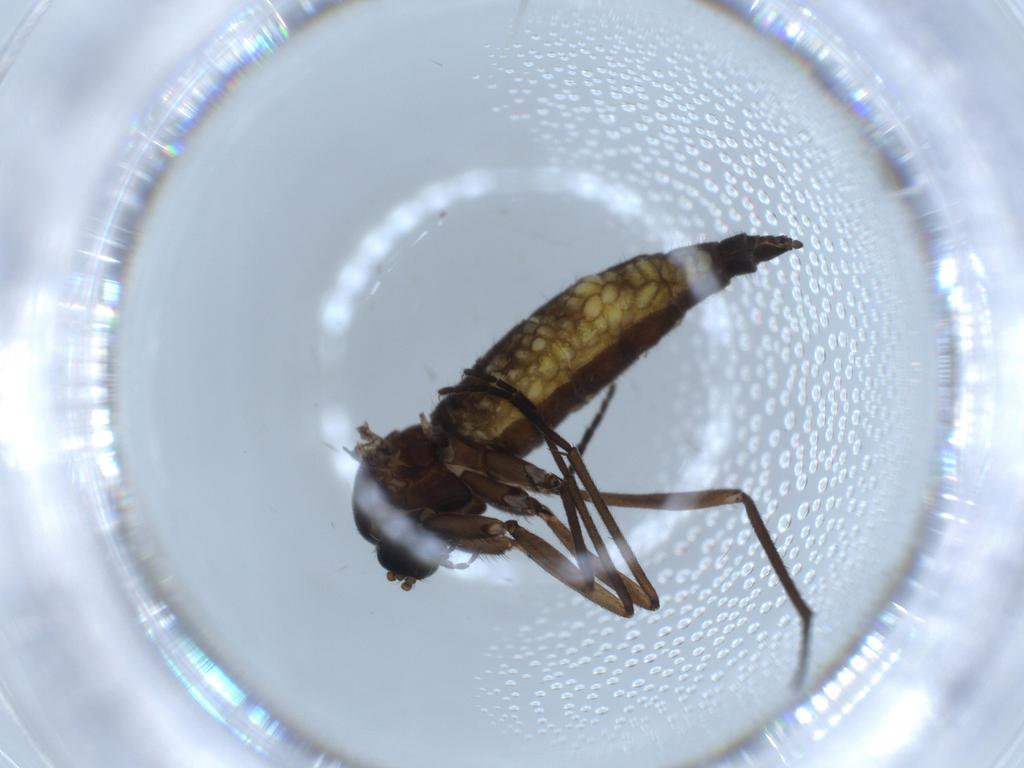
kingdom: Animalia
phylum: Arthropoda
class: Insecta
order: Diptera
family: Sciaridae
